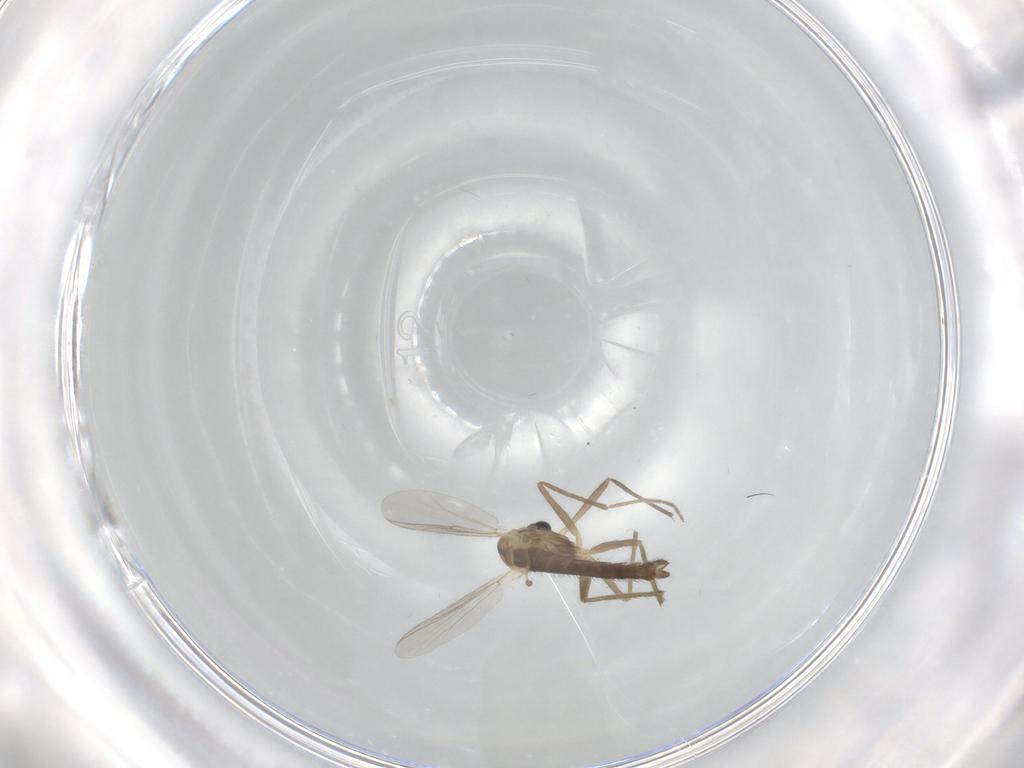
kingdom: Animalia
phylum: Arthropoda
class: Insecta
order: Diptera
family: Chironomidae
